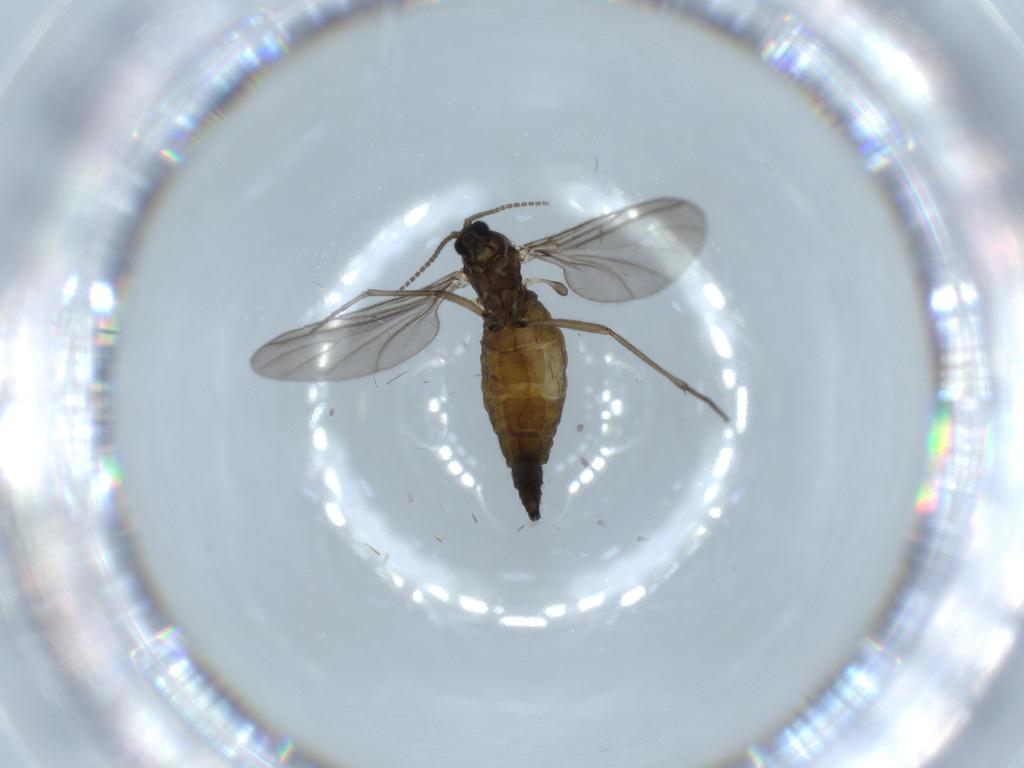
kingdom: Animalia
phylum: Arthropoda
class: Insecta
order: Diptera
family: Sciaridae
